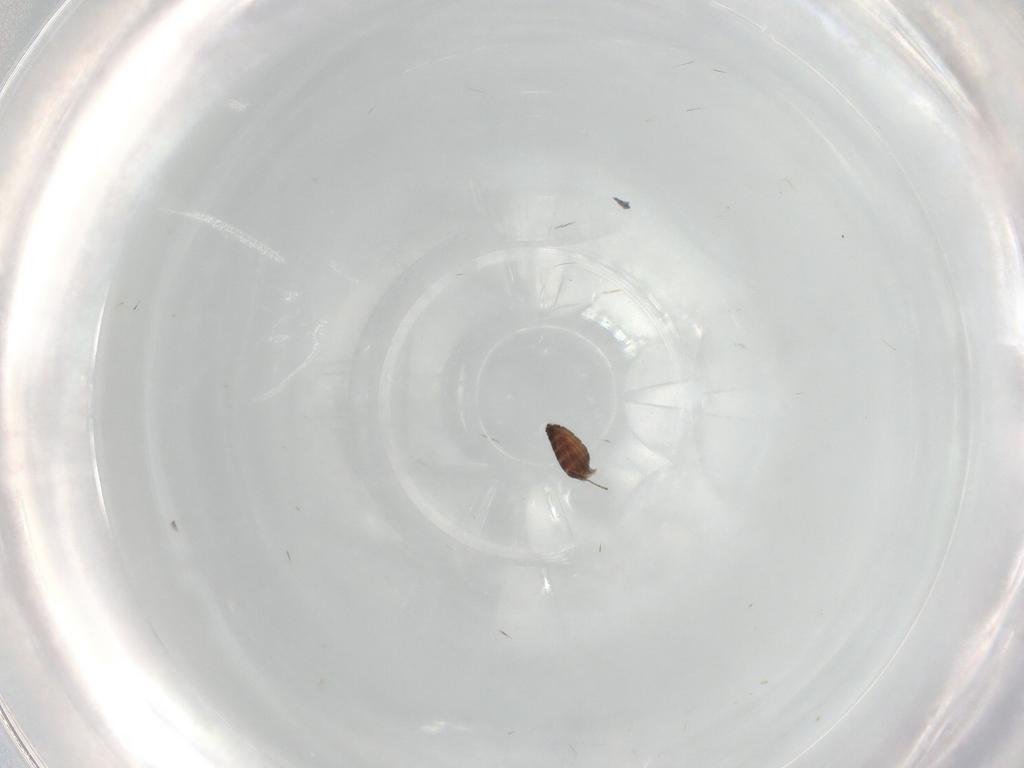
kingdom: Animalia
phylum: Arthropoda
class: Insecta
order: Diptera
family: Ceratopogonidae
